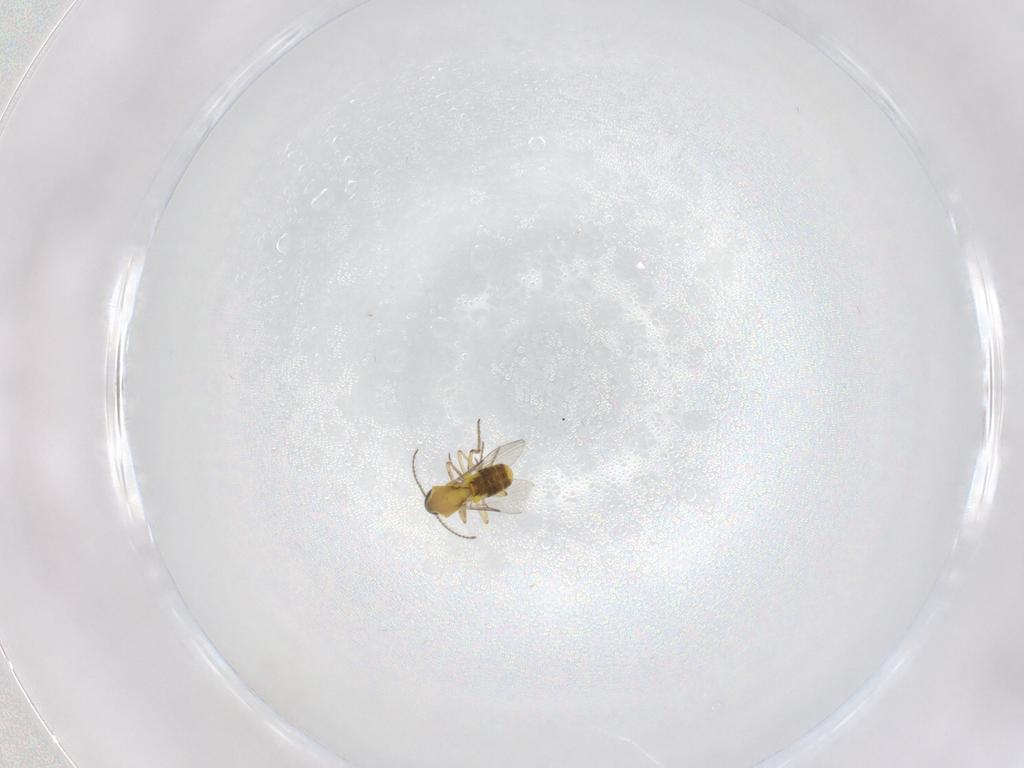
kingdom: Animalia
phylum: Arthropoda
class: Insecta
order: Diptera
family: Ceratopogonidae
